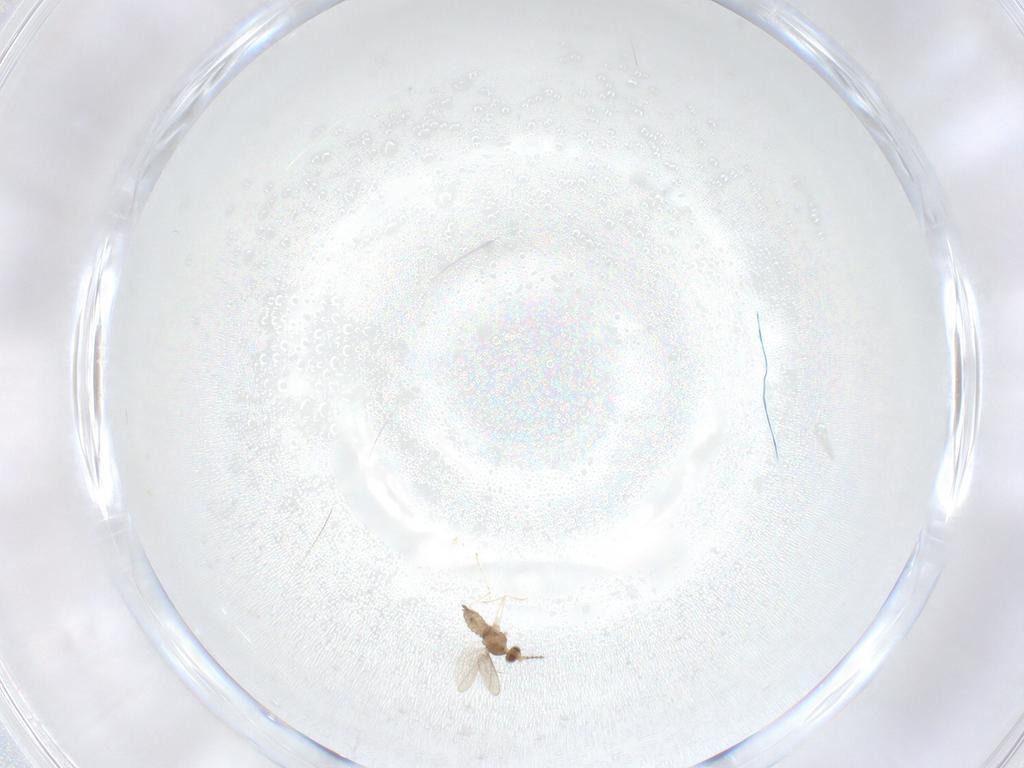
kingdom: Animalia
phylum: Arthropoda
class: Insecta
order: Diptera
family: Cecidomyiidae
